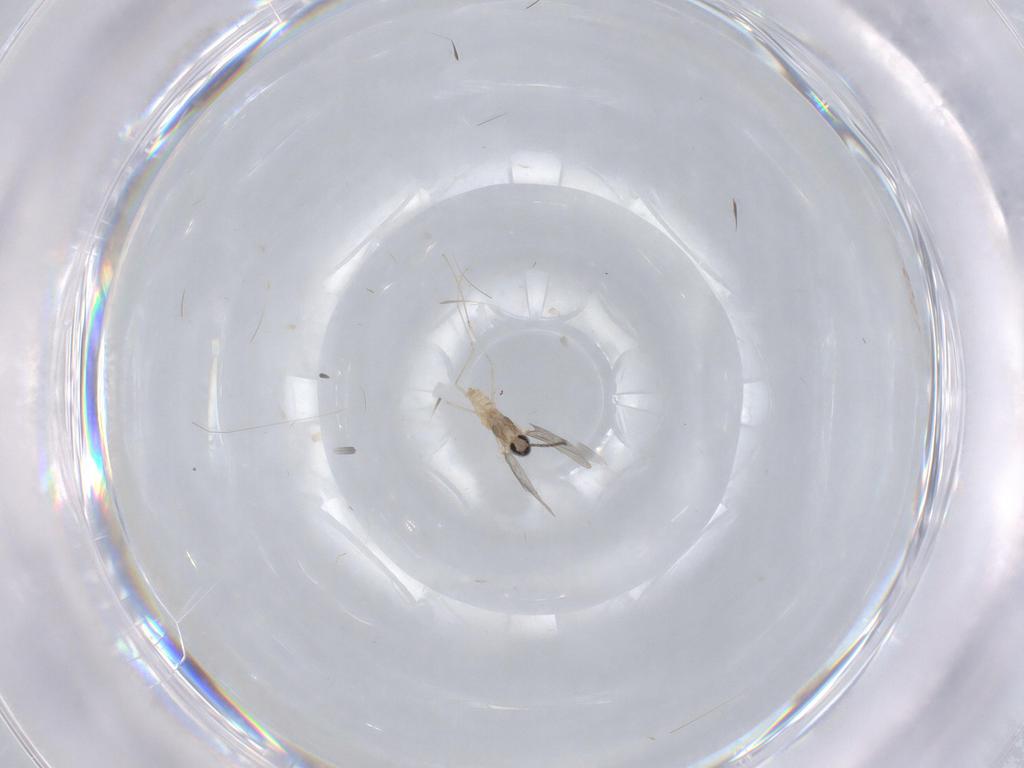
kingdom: Animalia
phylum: Arthropoda
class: Insecta
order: Diptera
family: Cecidomyiidae
